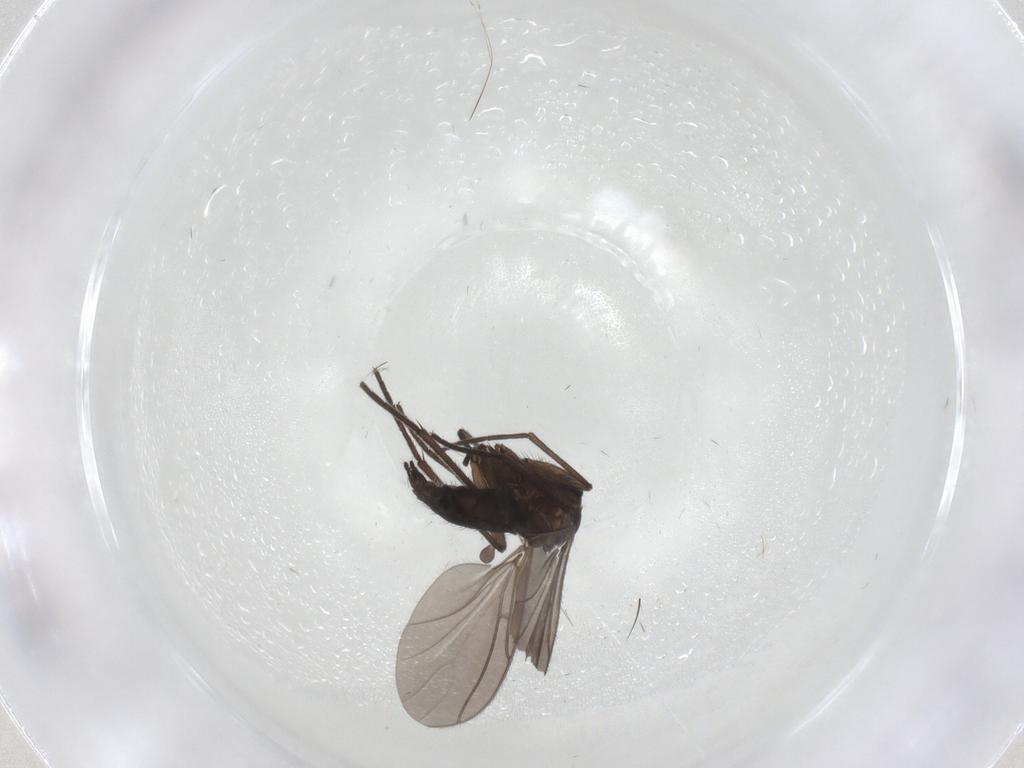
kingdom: Animalia
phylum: Arthropoda
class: Insecta
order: Diptera
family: Sciaridae
